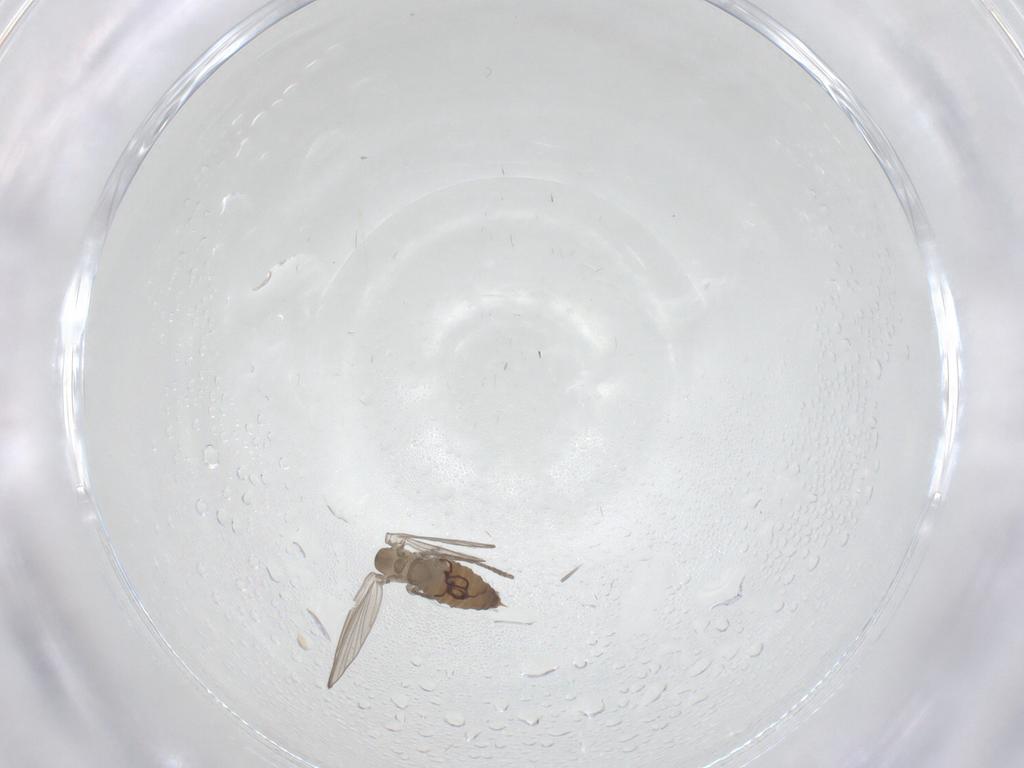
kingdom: Animalia
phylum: Arthropoda
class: Insecta
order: Diptera
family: Psychodidae
